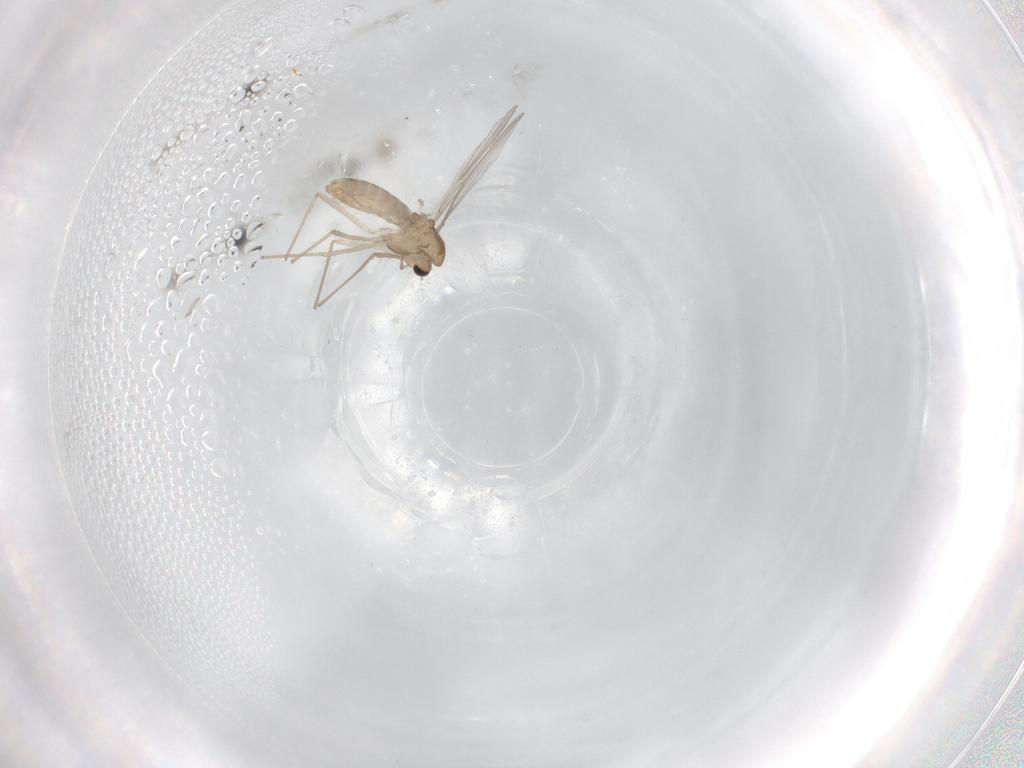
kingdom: Animalia
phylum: Arthropoda
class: Insecta
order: Diptera
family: Chironomidae
